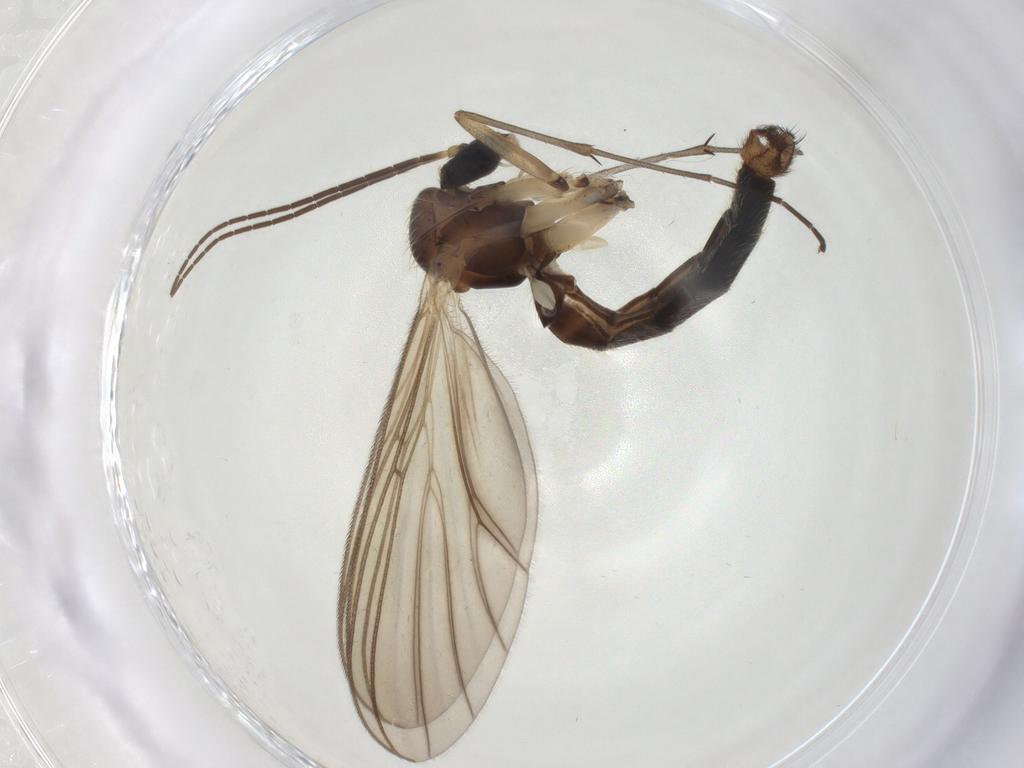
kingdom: Animalia
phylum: Arthropoda
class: Insecta
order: Diptera
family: Mycetophilidae
